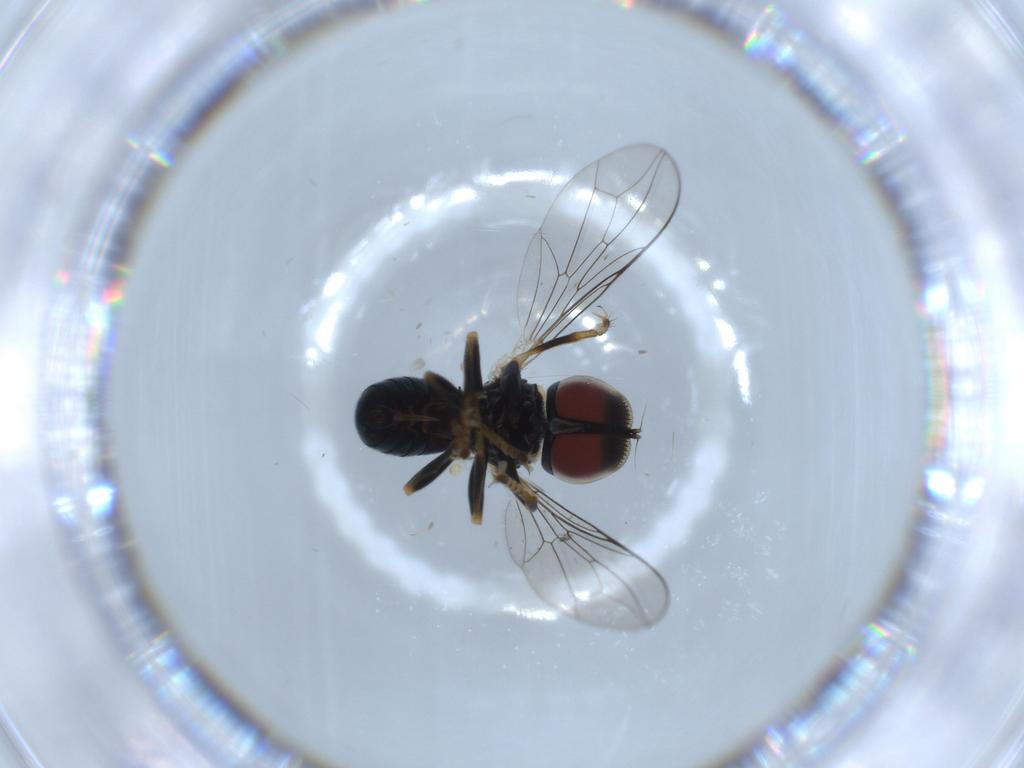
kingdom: Animalia
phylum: Arthropoda
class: Insecta
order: Diptera
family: Pipunculidae
